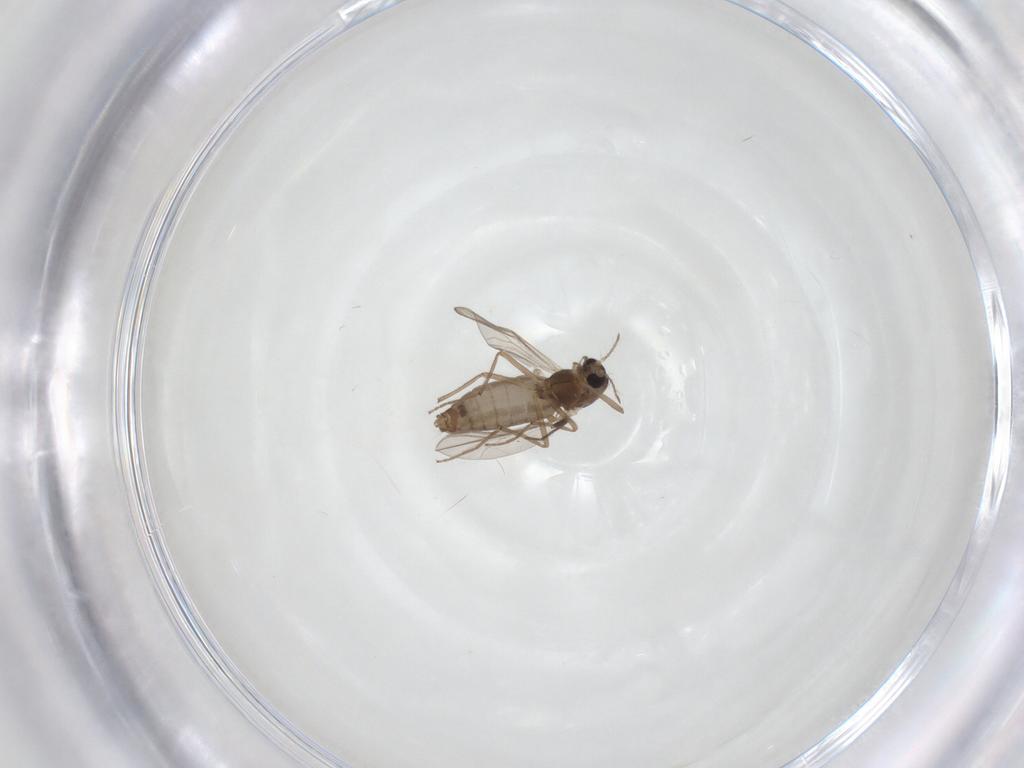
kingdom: Animalia
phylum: Arthropoda
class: Insecta
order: Diptera
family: Chironomidae
